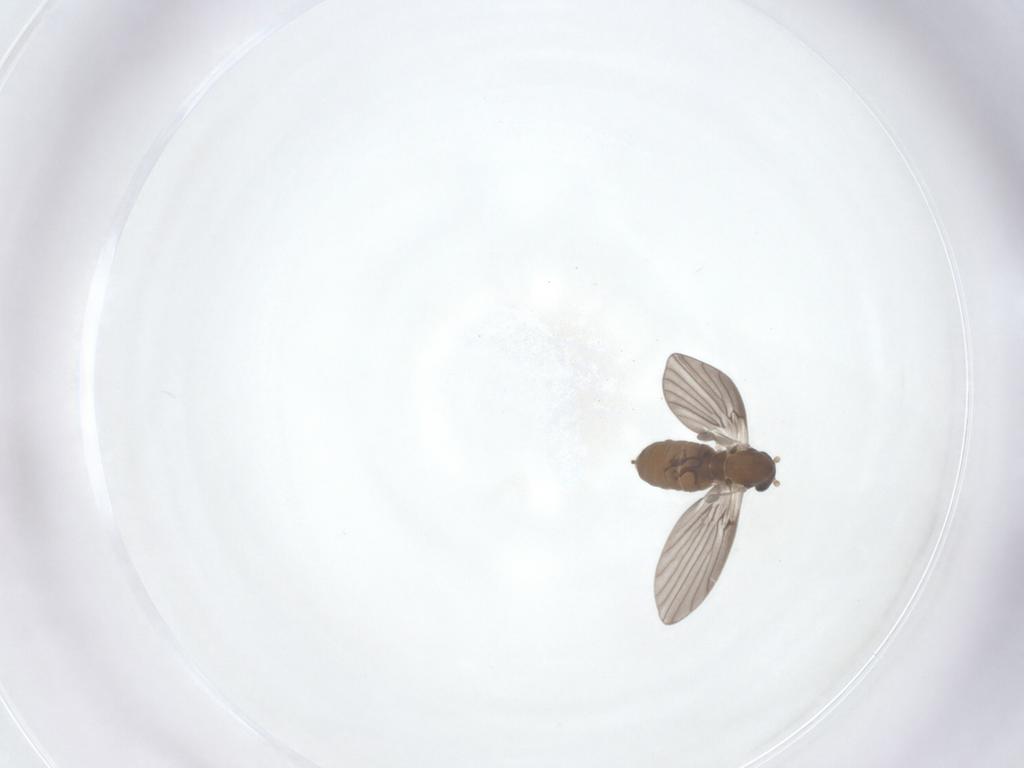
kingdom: Animalia
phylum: Arthropoda
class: Insecta
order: Diptera
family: Psychodidae
